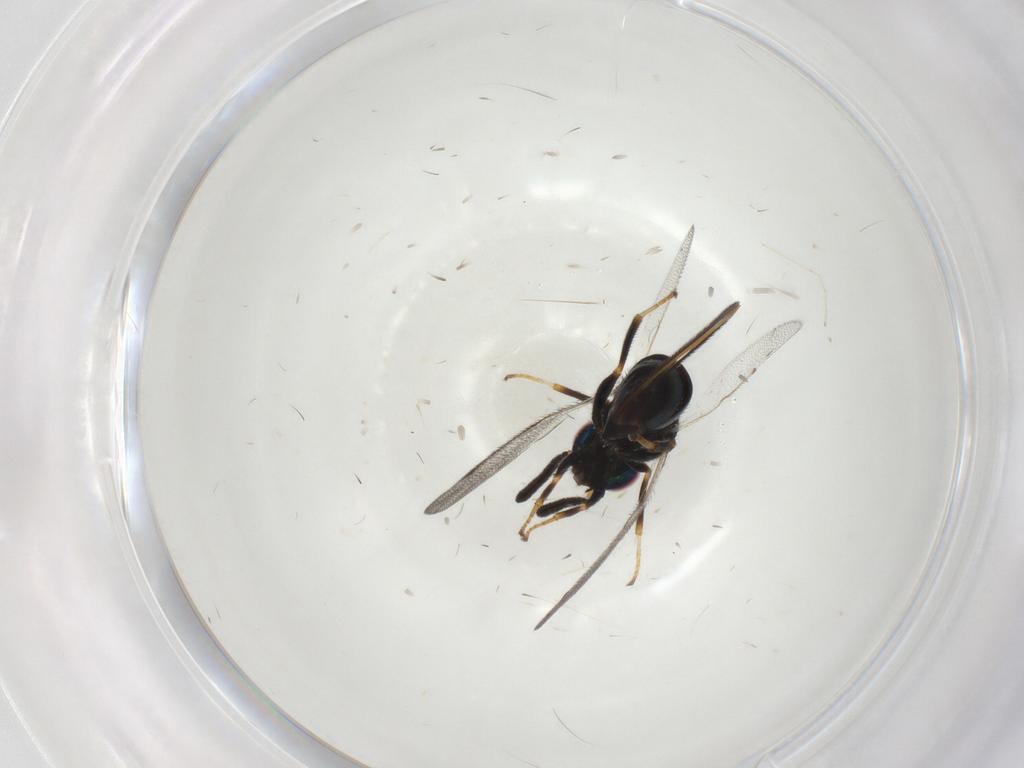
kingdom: Animalia
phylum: Arthropoda
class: Insecta
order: Hymenoptera
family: Torymidae
